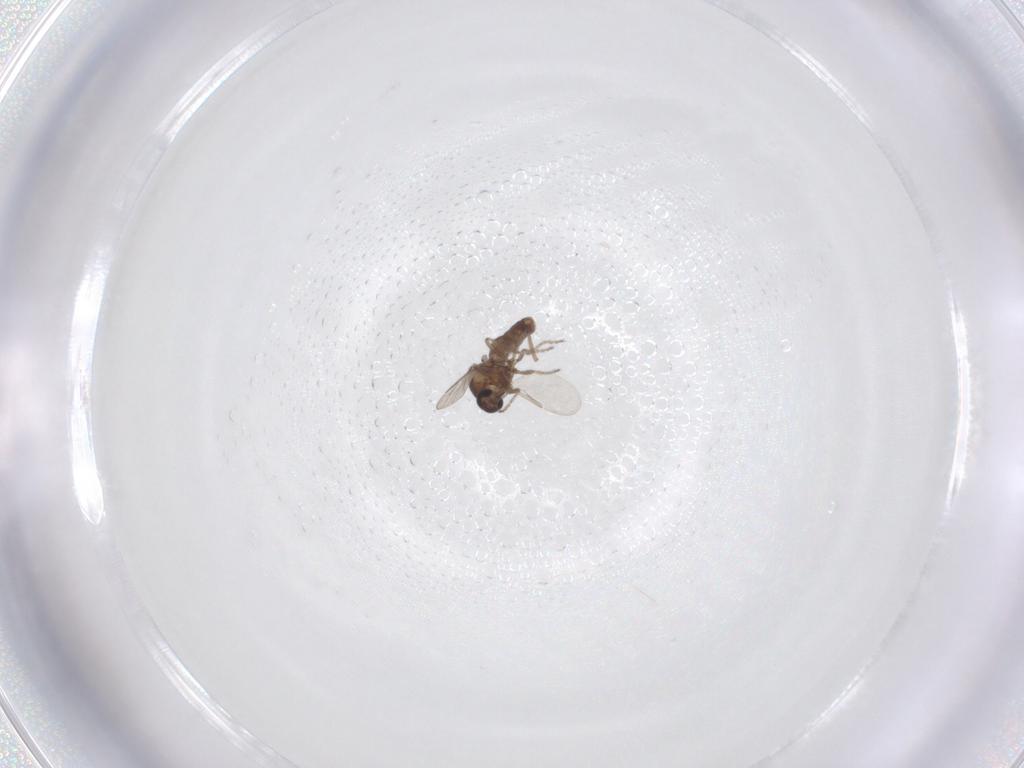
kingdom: Animalia
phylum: Arthropoda
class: Insecta
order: Diptera
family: Ceratopogonidae
